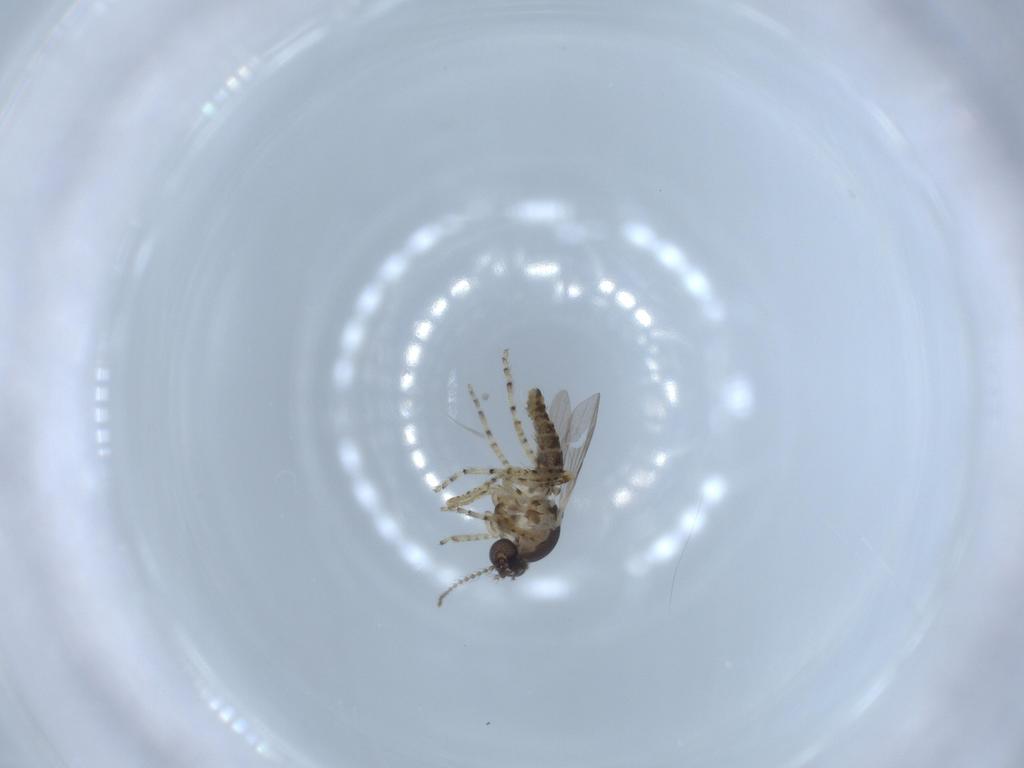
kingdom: Animalia
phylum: Arthropoda
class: Insecta
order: Diptera
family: Ceratopogonidae
